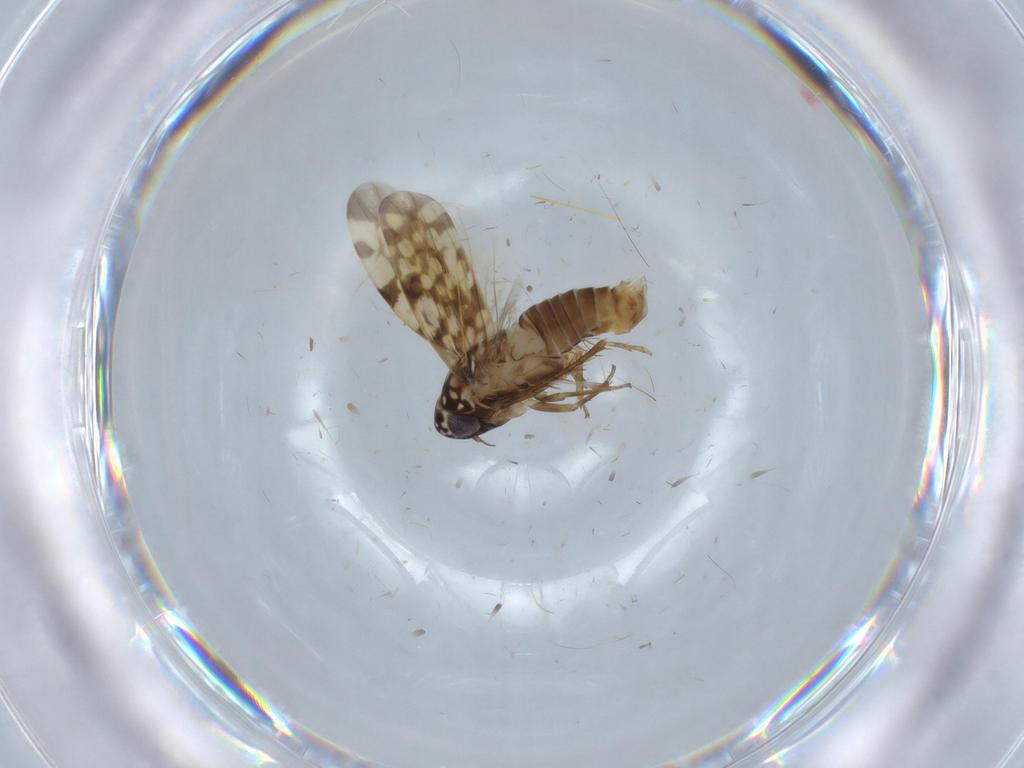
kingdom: Animalia
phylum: Arthropoda
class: Insecta
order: Hemiptera
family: Cicadellidae
